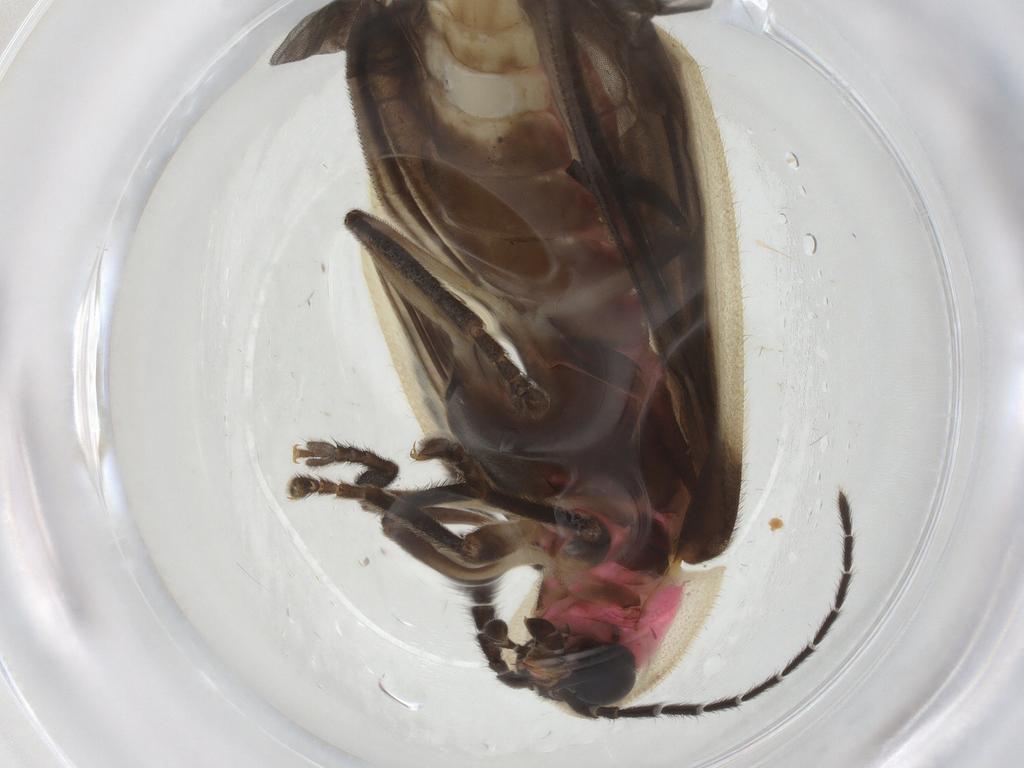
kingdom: Animalia
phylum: Arthropoda
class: Insecta
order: Coleoptera
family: Lampyridae
